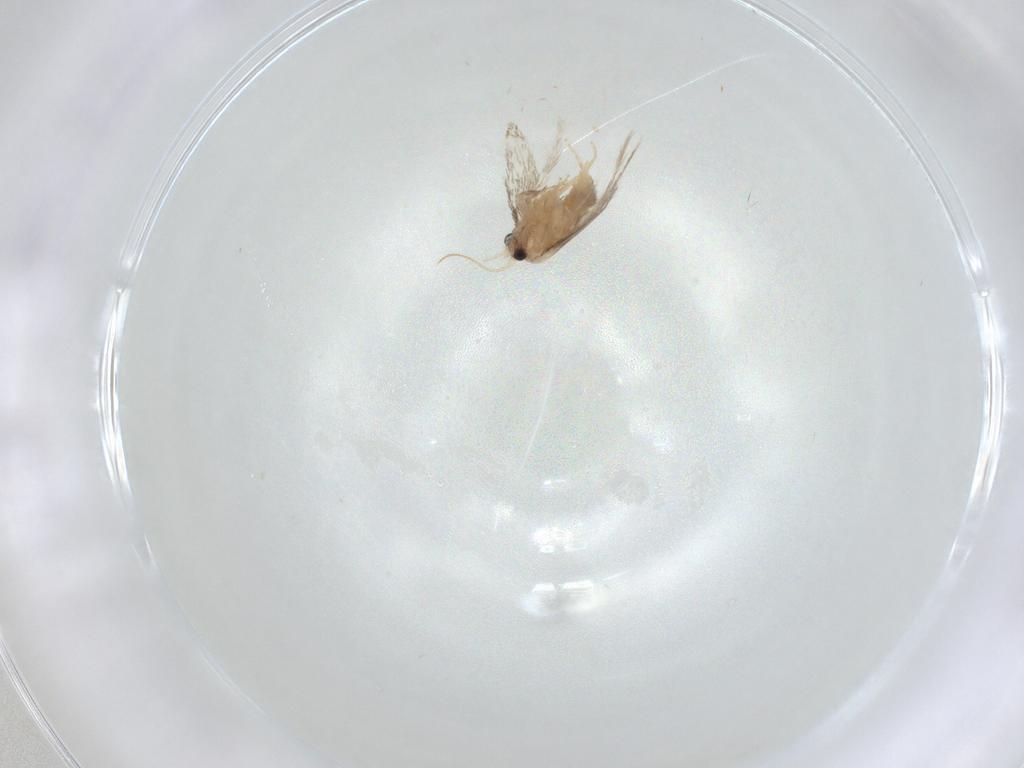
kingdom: Animalia
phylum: Arthropoda
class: Insecta
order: Lepidoptera
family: Nepticulidae
